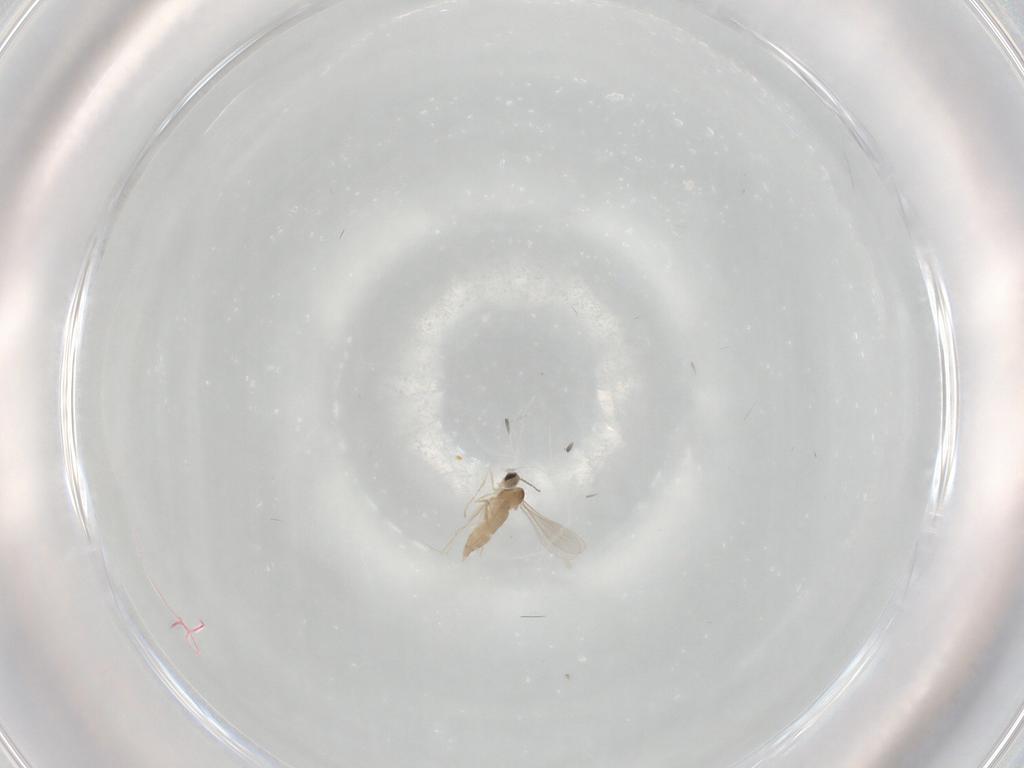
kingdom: Animalia
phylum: Arthropoda
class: Insecta
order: Diptera
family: Cecidomyiidae
